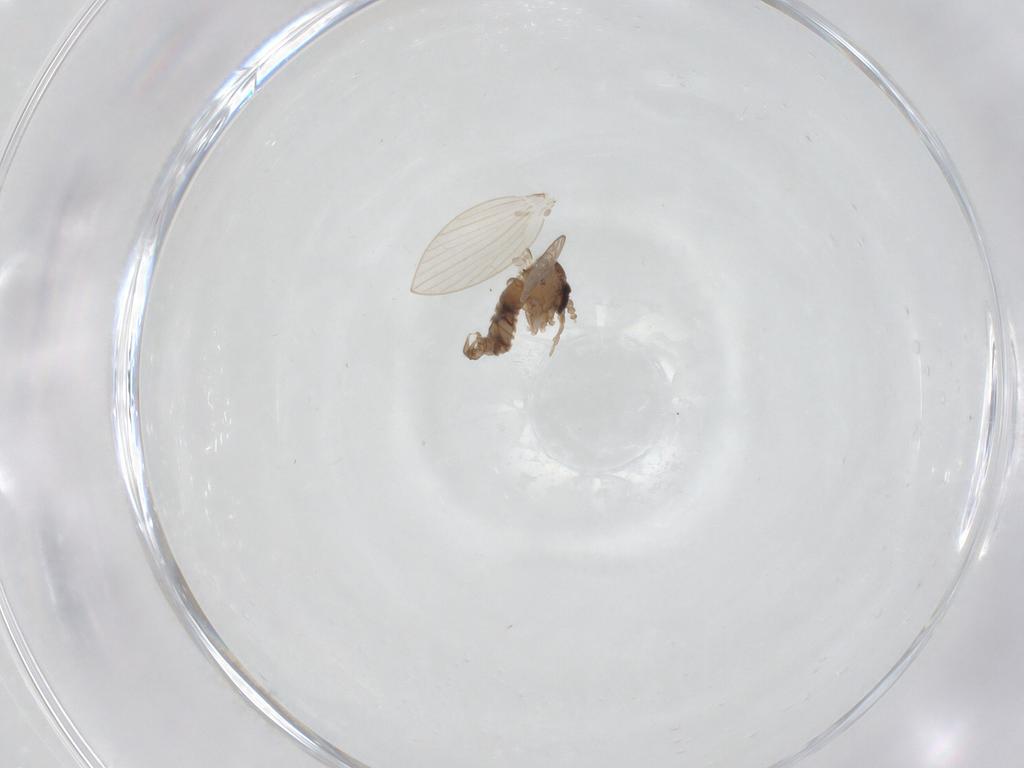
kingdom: Animalia
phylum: Arthropoda
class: Insecta
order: Diptera
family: Psychodidae
